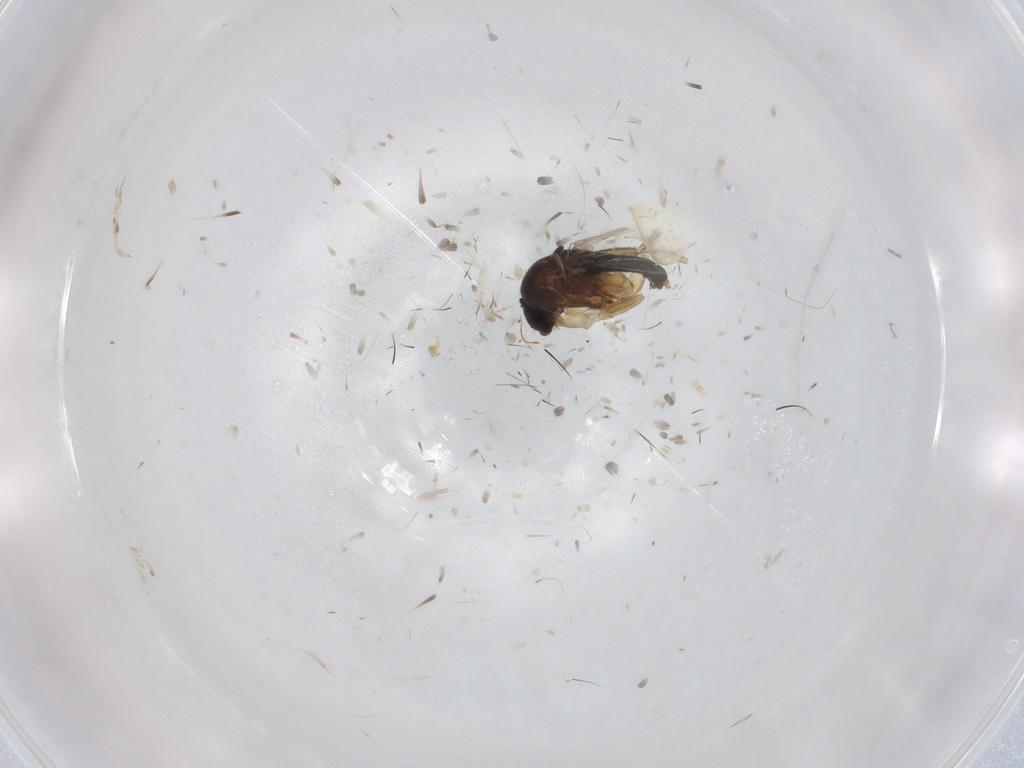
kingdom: Animalia
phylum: Arthropoda
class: Insecta
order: Diptera
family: Phoridae
